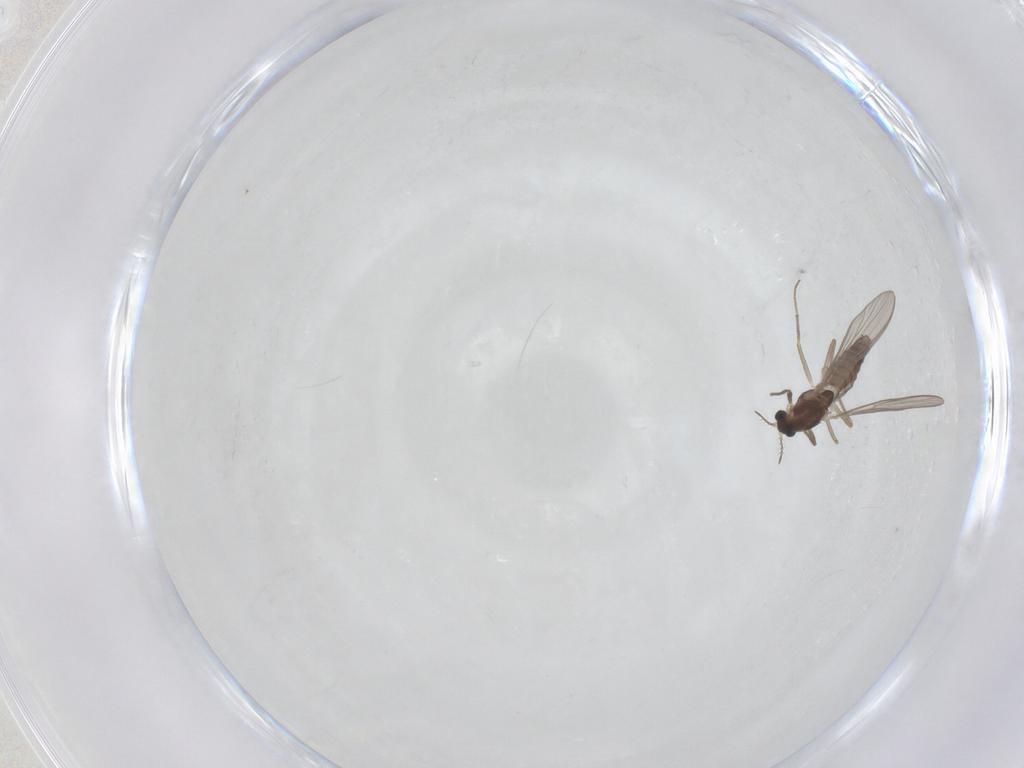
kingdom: Animalia
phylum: Arthropoda
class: Insecta
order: Diptera
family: Chironomidae
